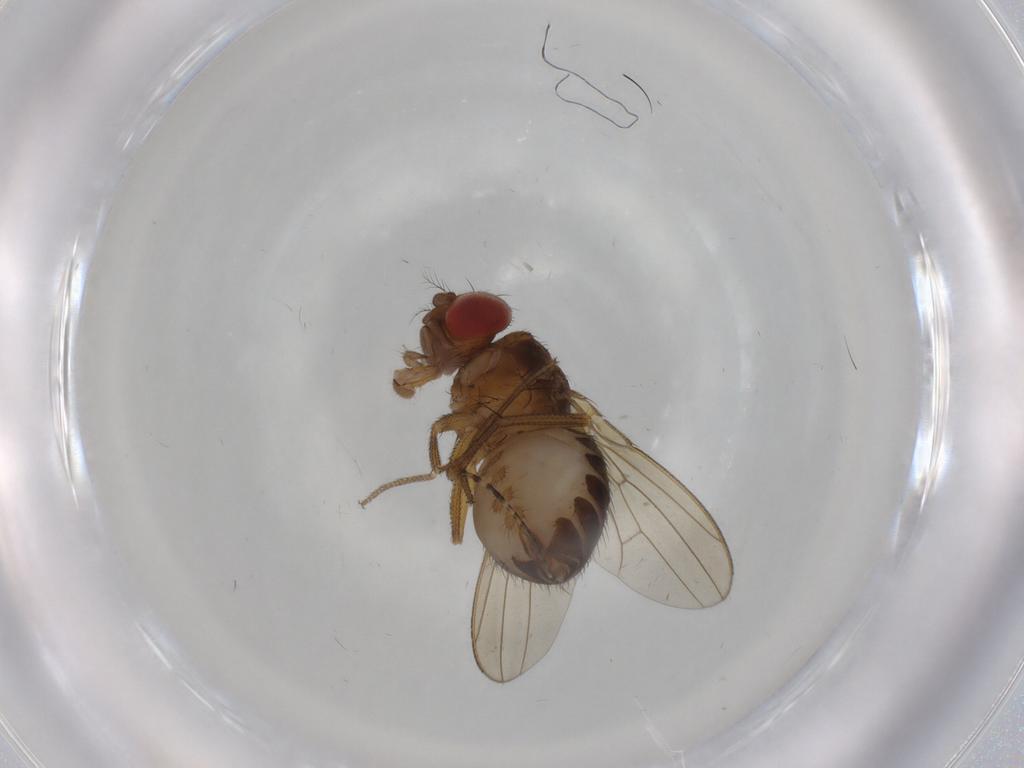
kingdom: Animalia
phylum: Arthropoda
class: Insecta
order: Diptera
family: Drosophilidae
